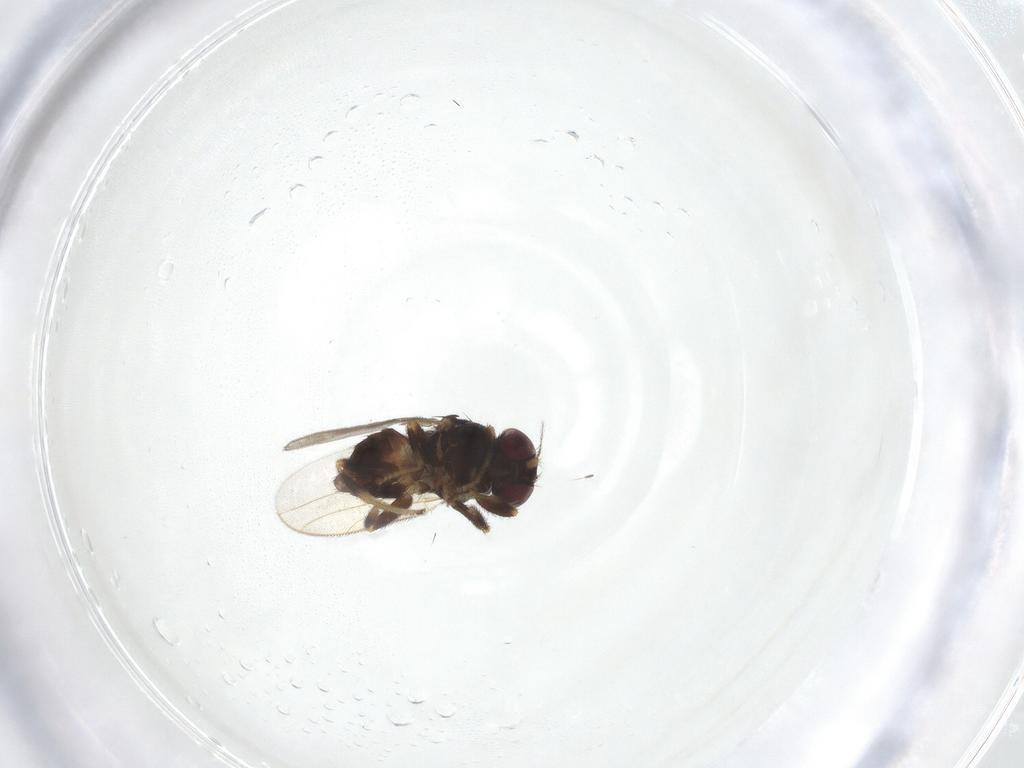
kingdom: Animalia
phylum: Arthropoda
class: Insecta
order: Diptera
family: Chloropidae
